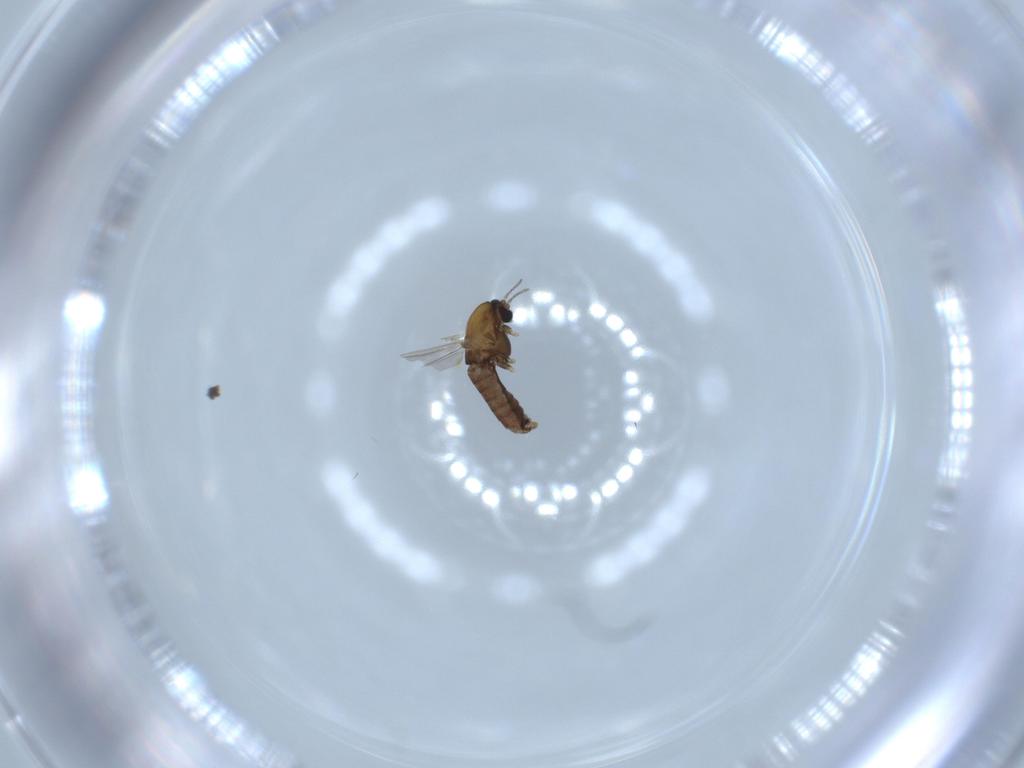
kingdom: Animalia
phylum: Arthropoda
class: Insecta
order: Diptera
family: Chironomidae
